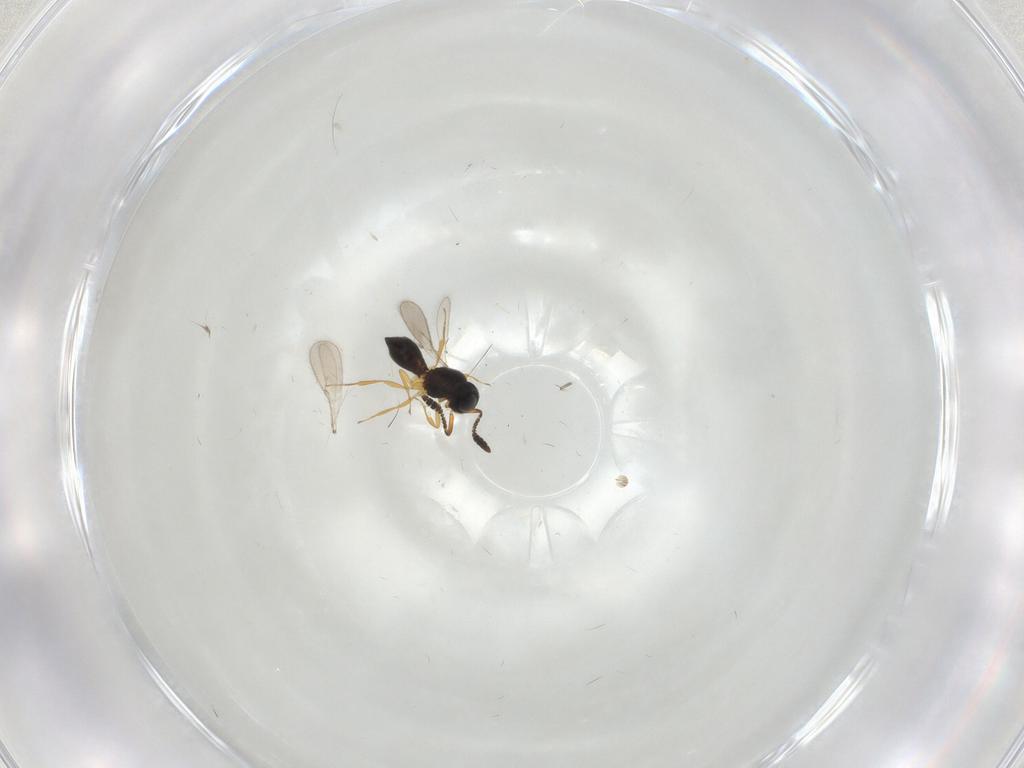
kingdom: Animalia
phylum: Arthropoda
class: Insecta
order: Hymenoptera
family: Scelionidae
